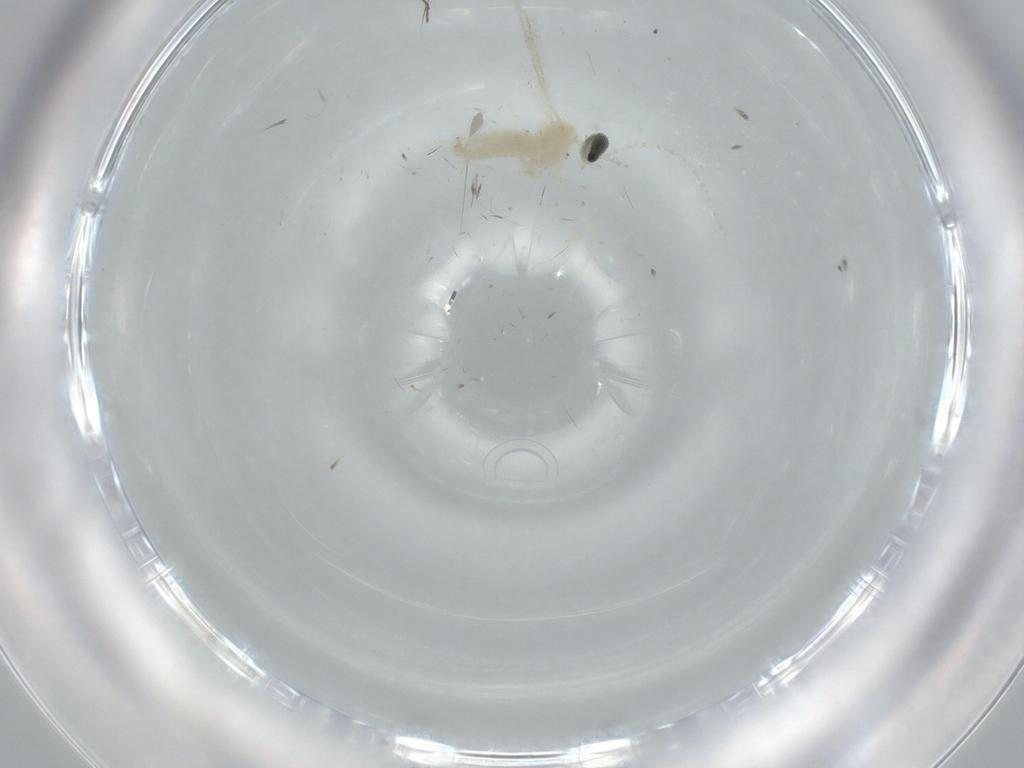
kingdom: Animalia
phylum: Arthropoda
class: Insecta
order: Diptera
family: Cecidomyiidae
